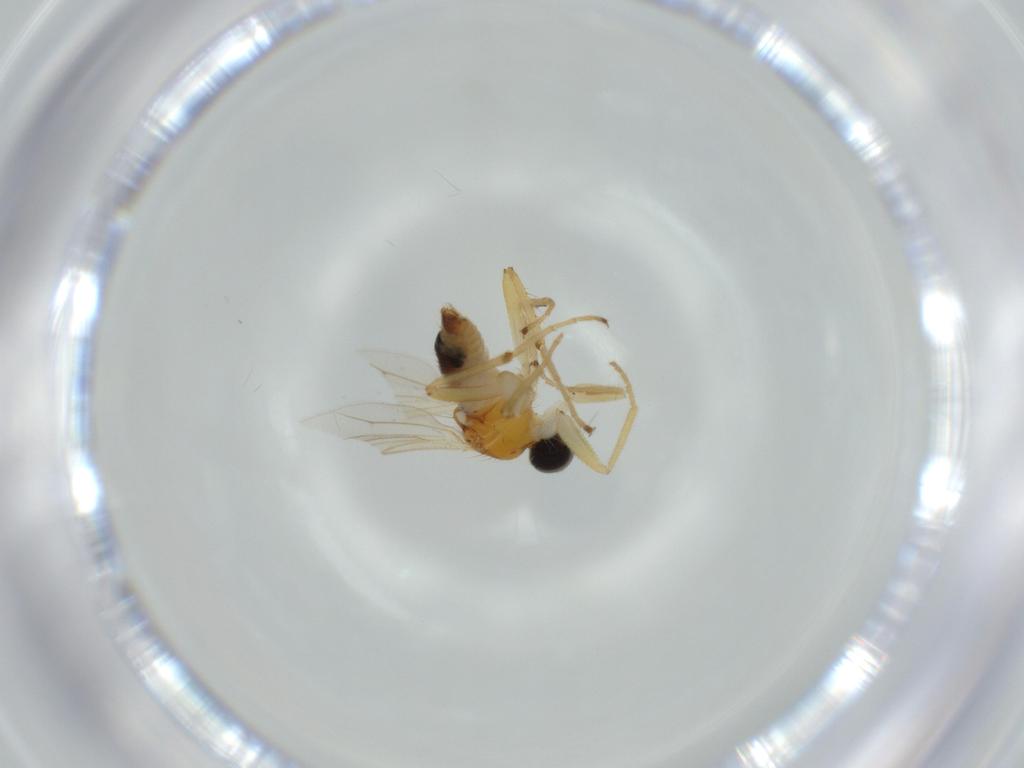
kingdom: Animalia
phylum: Arthropoda
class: Insecta
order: Diptera
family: Hybotidae
